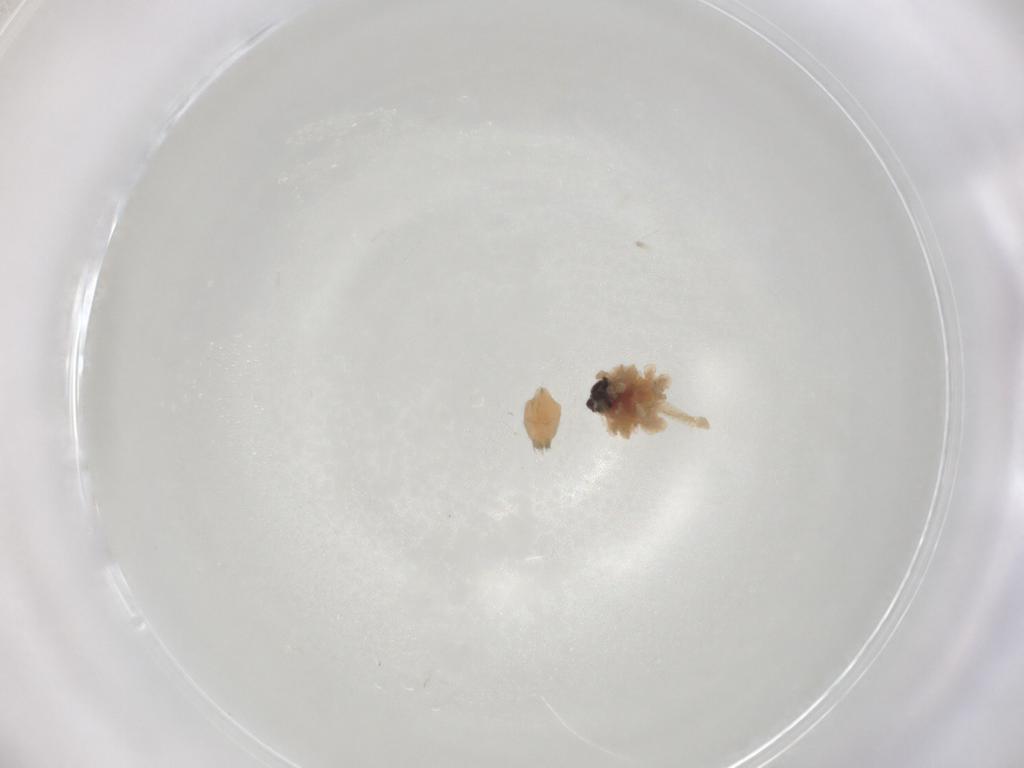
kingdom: Animalia
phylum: Arthropoda
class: Arachnida
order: Araneae
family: Lycosidae
